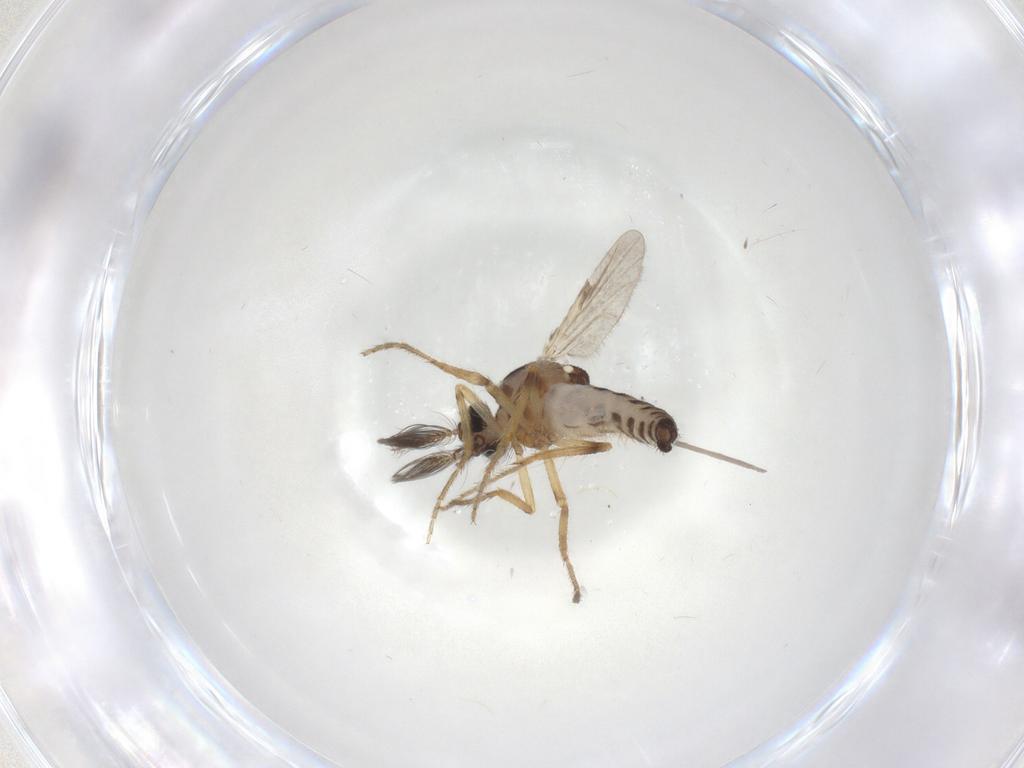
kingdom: Animalia
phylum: Arthropoda
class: Insecta
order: Diptera
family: Ceratopogonidae
